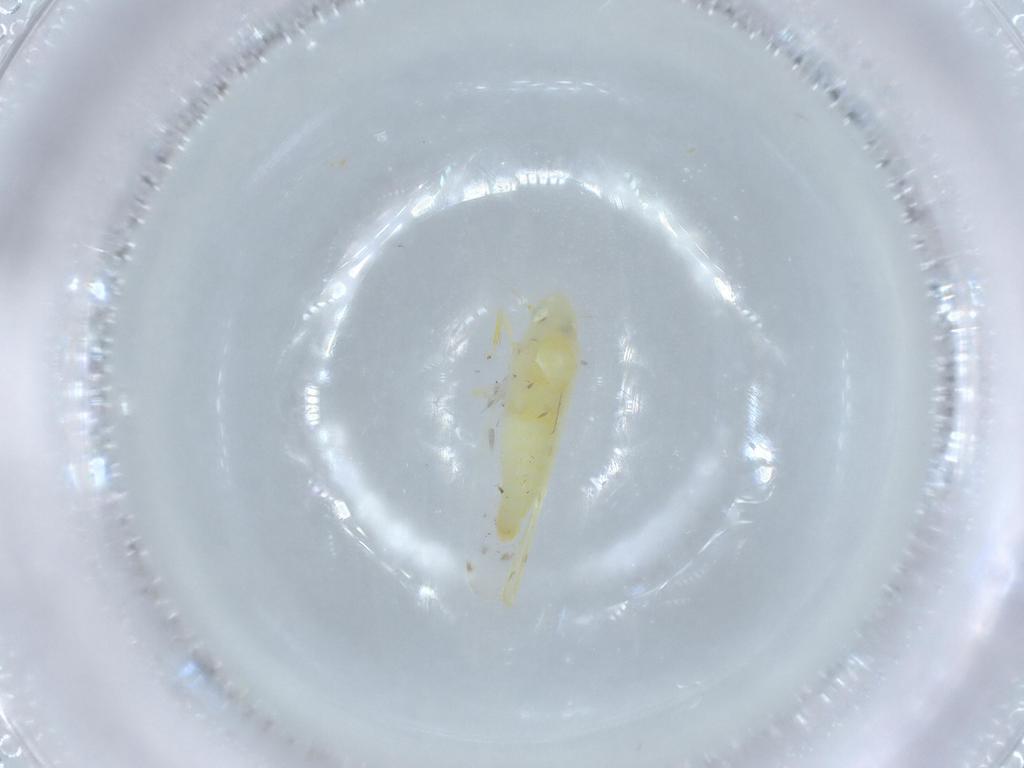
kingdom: Animalia
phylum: Arthropoda
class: Insecta
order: Hemiptera
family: Cicadellidae
